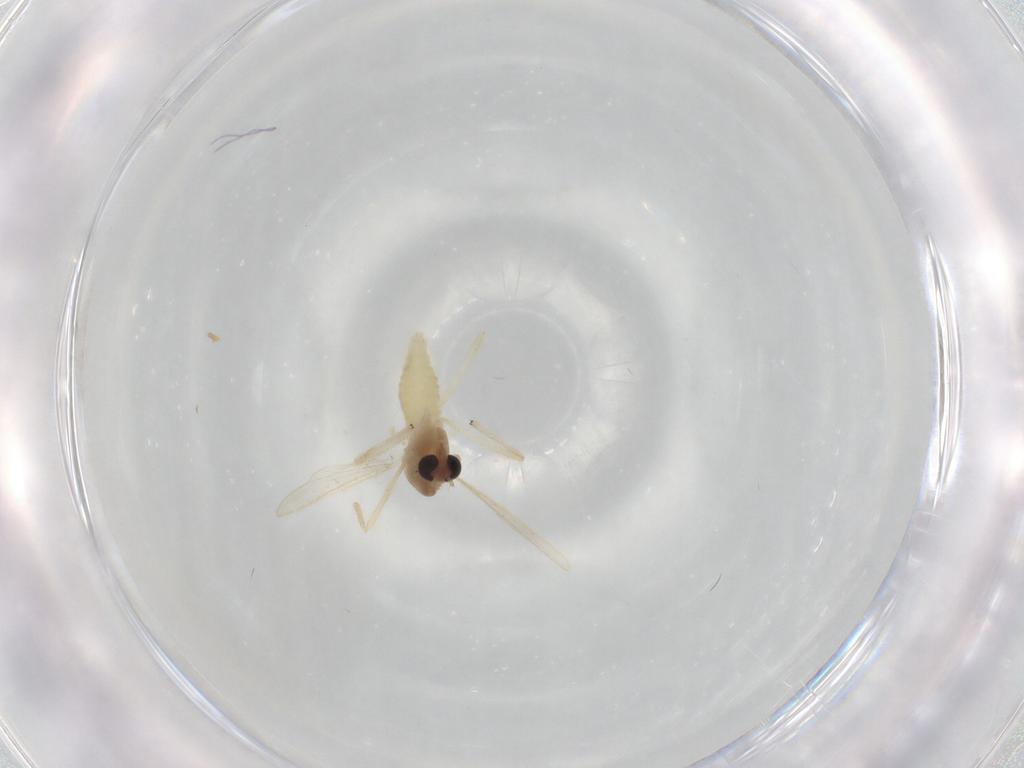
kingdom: Animalia
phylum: Arthropoda
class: Insecta
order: Diptera
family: Chironomidae
